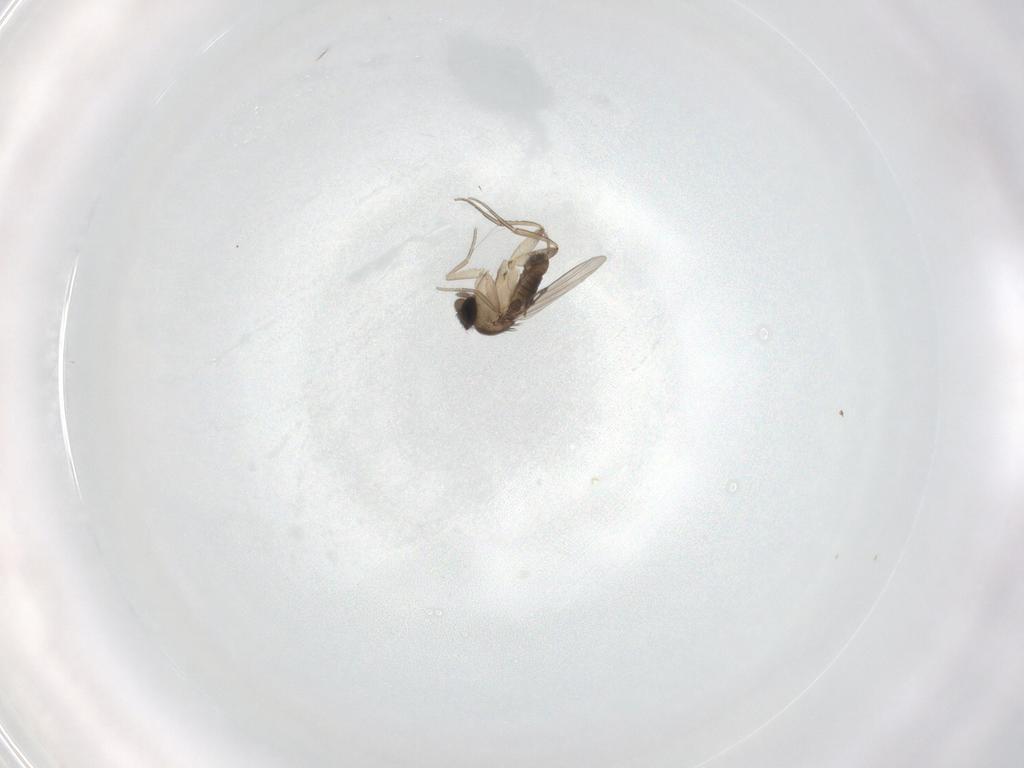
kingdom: Animalia
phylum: Arthropoda
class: Insecta
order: Diptera
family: Phoridae
